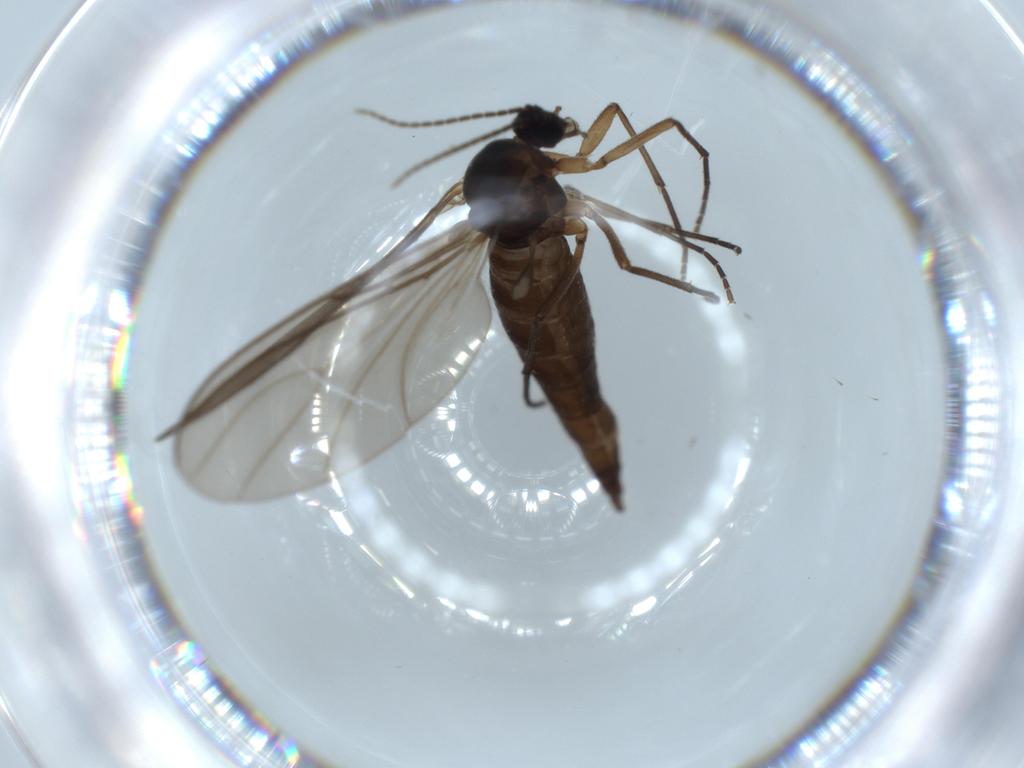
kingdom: Animalia
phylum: Arthropoda
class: Insecta
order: Diptera
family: Sciaridae
